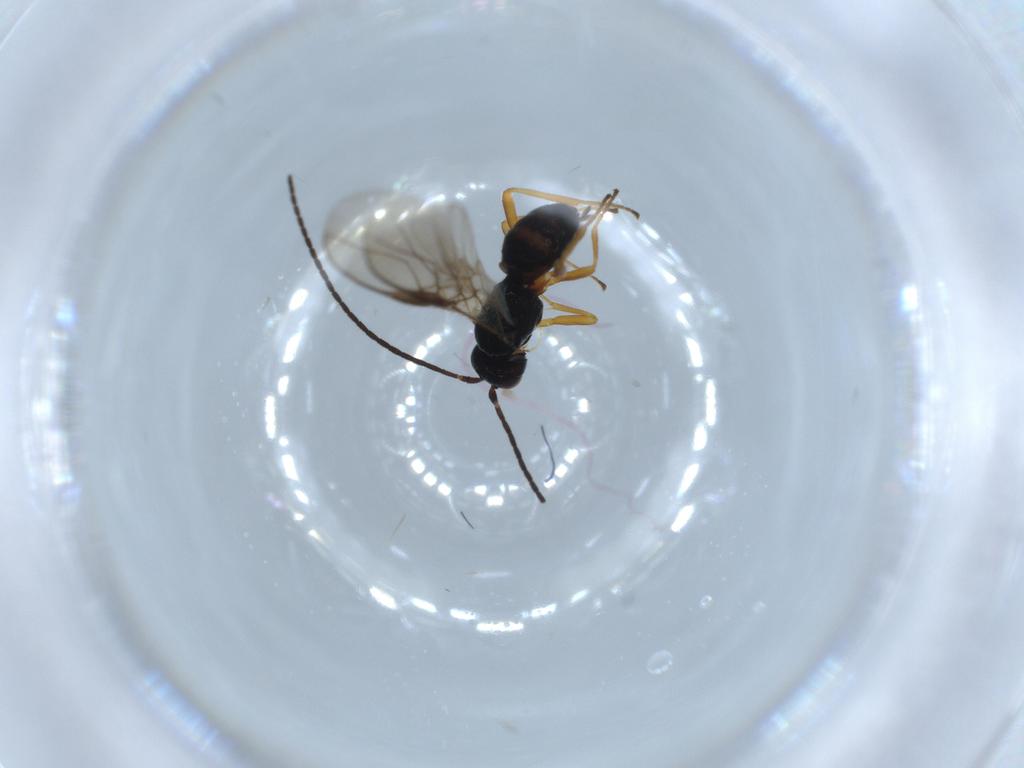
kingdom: Animalia
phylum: Arthropoda
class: Insecta
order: Hymenoptera
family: Braconidae
